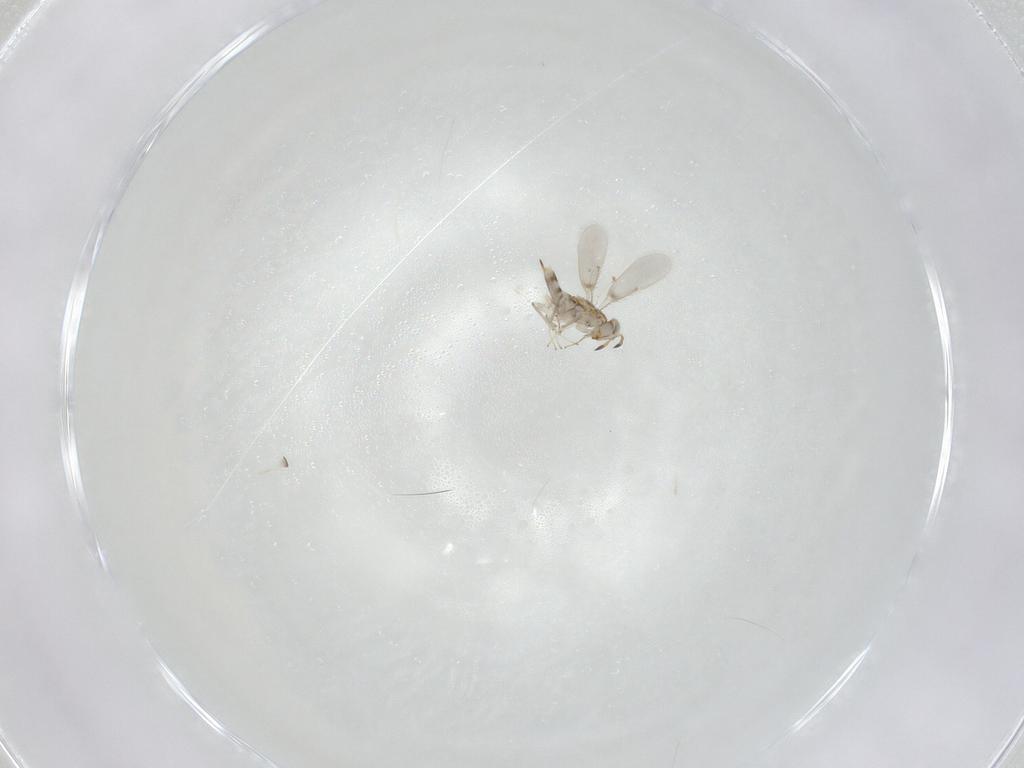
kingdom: Animalia
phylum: Arthropoda
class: Insecta
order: Hymenoptera
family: Aphelinidae
